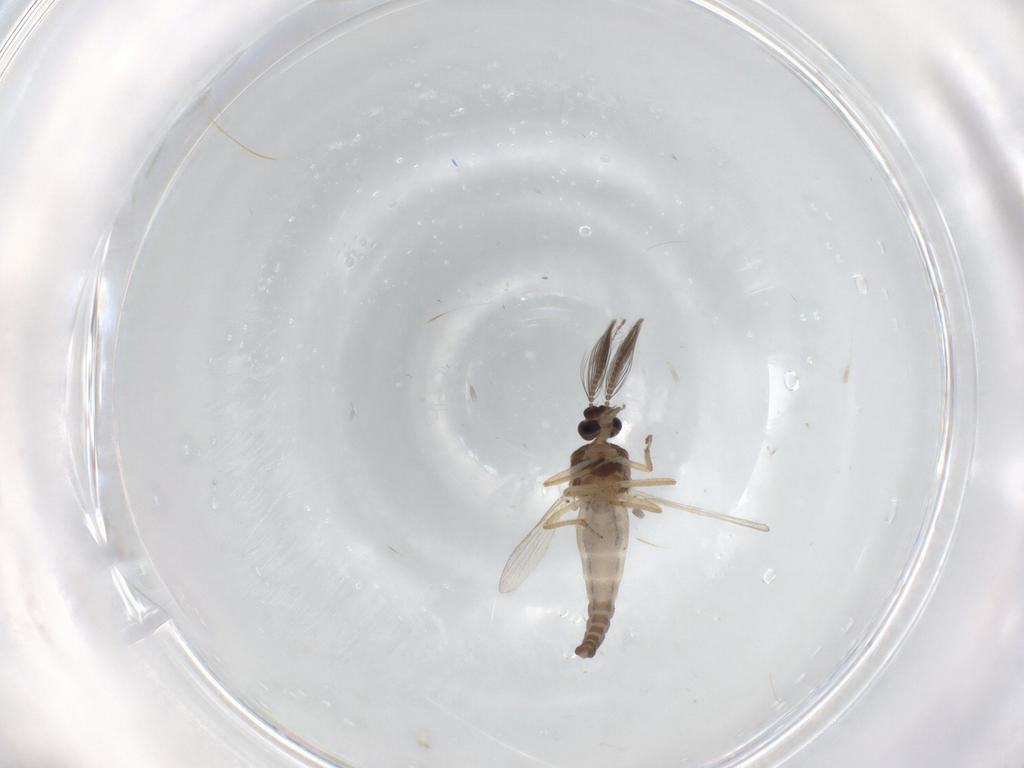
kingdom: Animalia
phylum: Arthropoda
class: Insecta
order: Diptera
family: Ceratopogonidae
